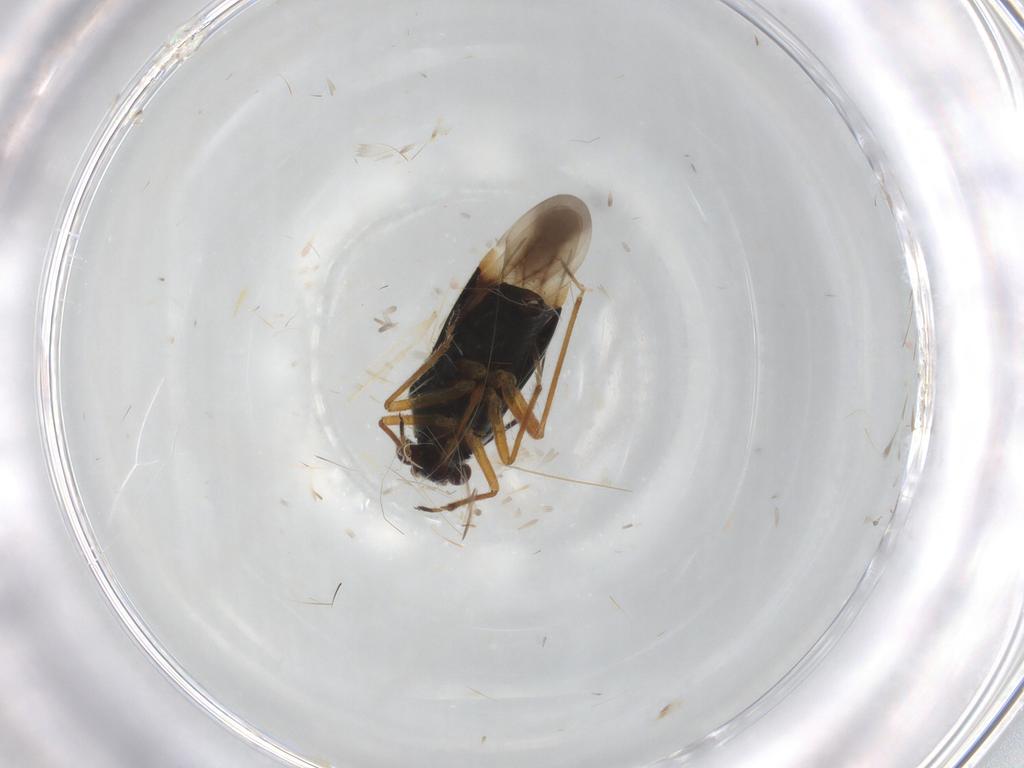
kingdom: Animalia
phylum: Arthropoda
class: Insecta
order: Hemiptera
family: Miridae
